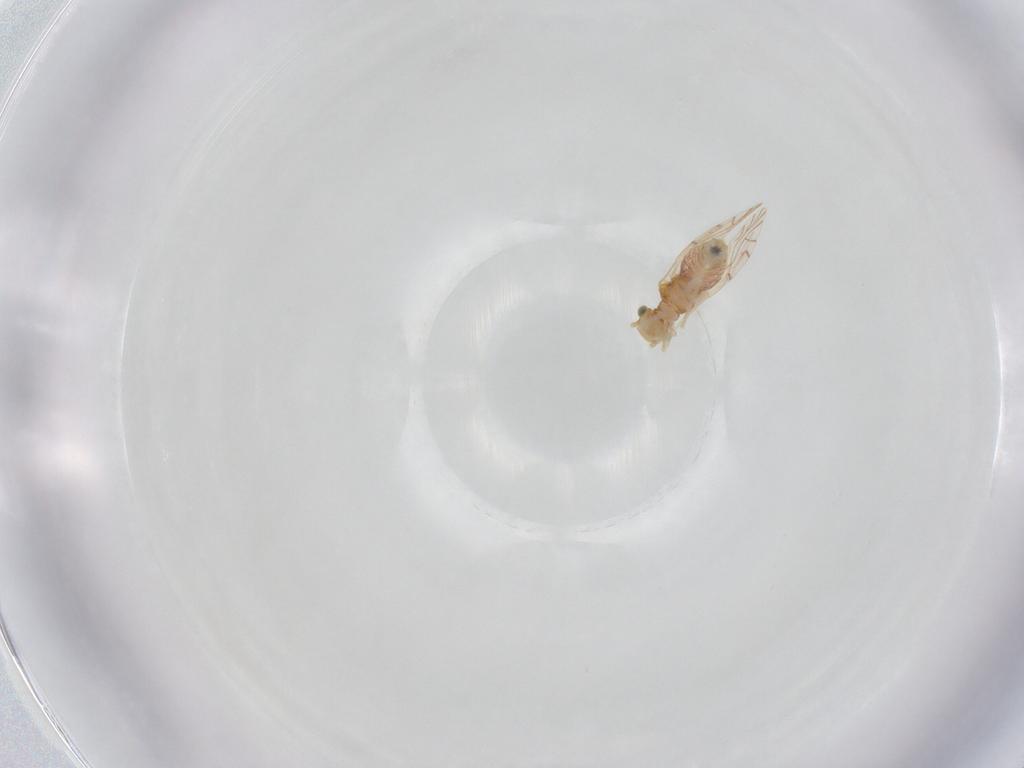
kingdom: Animalia
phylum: Arthropoda
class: Insecta
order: Psocodea
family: Lachesillidae
